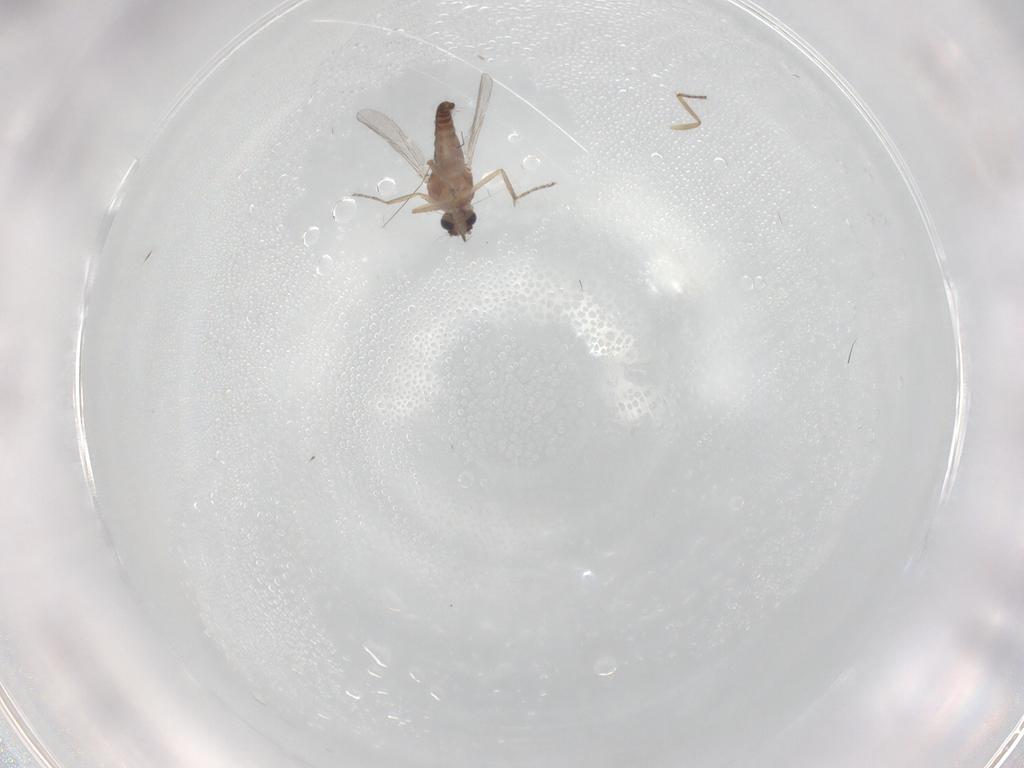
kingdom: Animalia
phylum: Arthropoda
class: Insecta
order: Diptera
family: Ceratopogonidae
